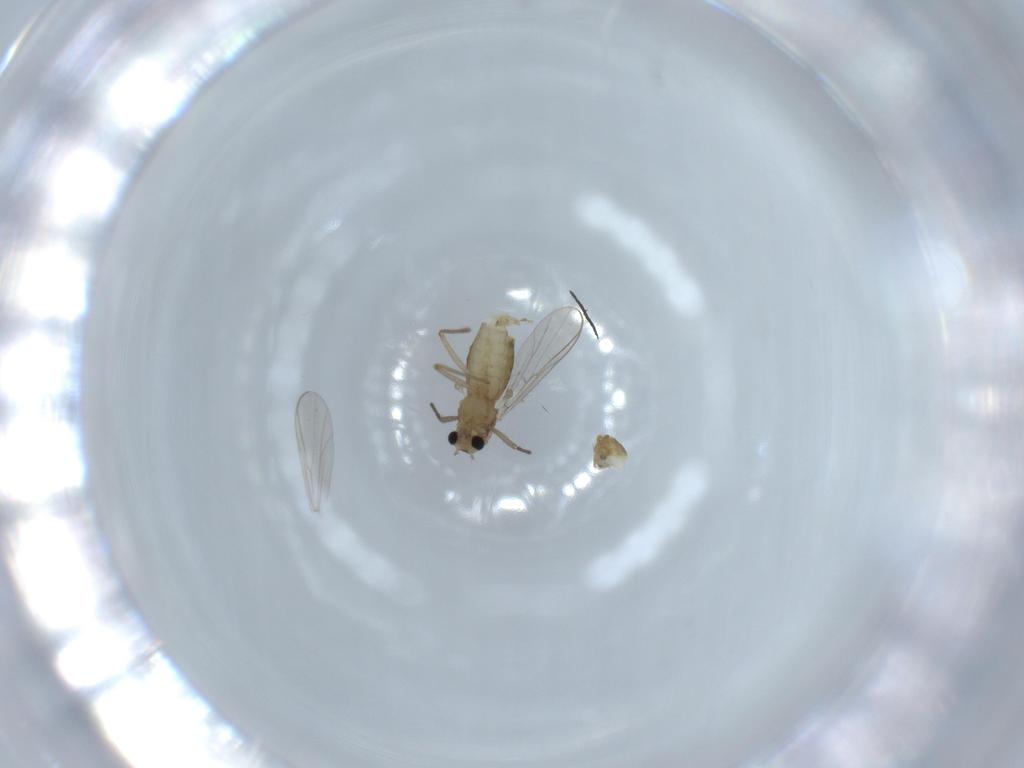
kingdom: Animalia
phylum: Arthropoda
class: Insecta
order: Diptera
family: Chironomidae
